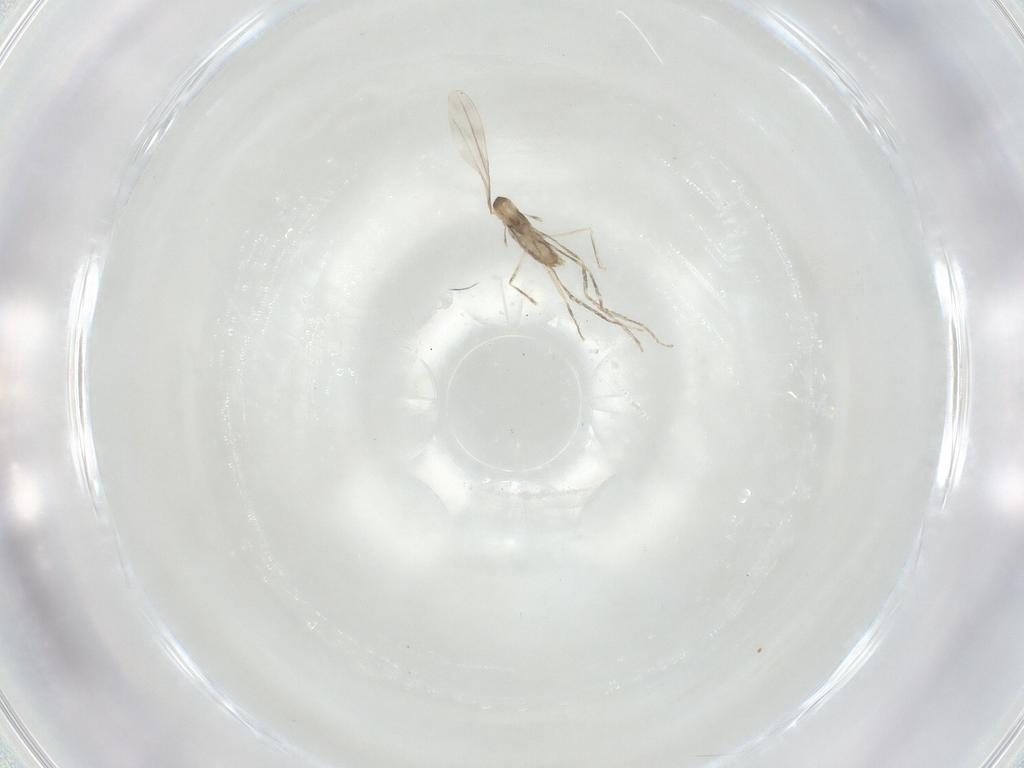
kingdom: Animalia
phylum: Arthropoda
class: Insecta
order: Diptera
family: Cecidomyiidae
